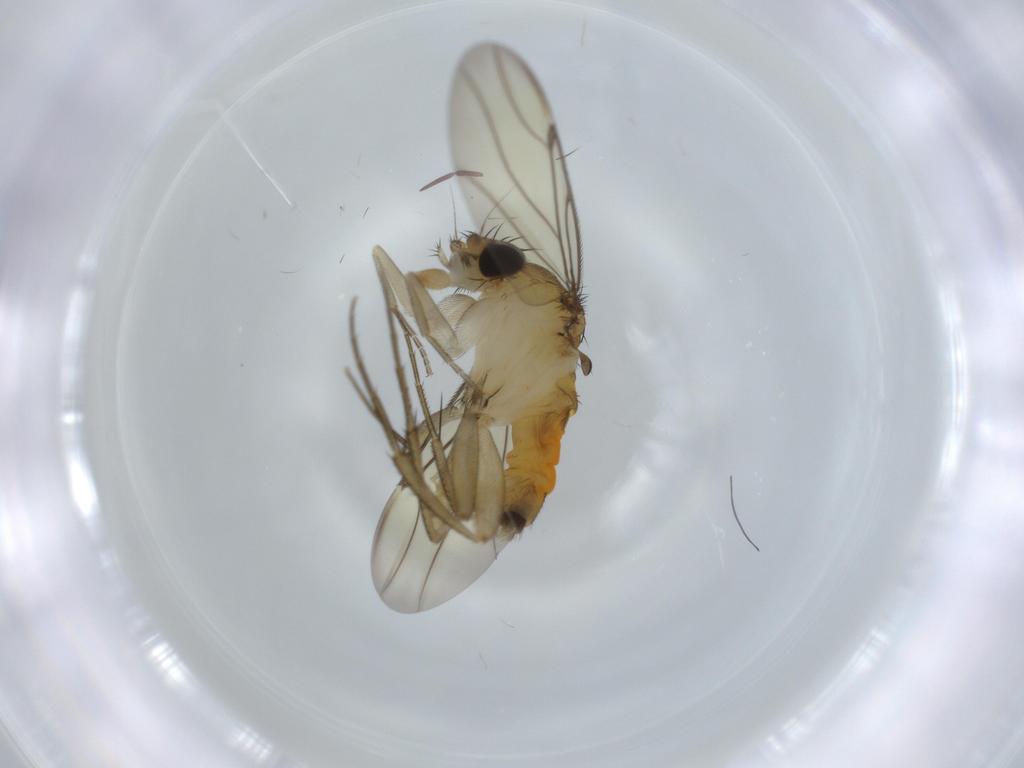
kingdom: Animalia
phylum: Arthropoda
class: Insecta
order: Diptera
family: Phoridae
